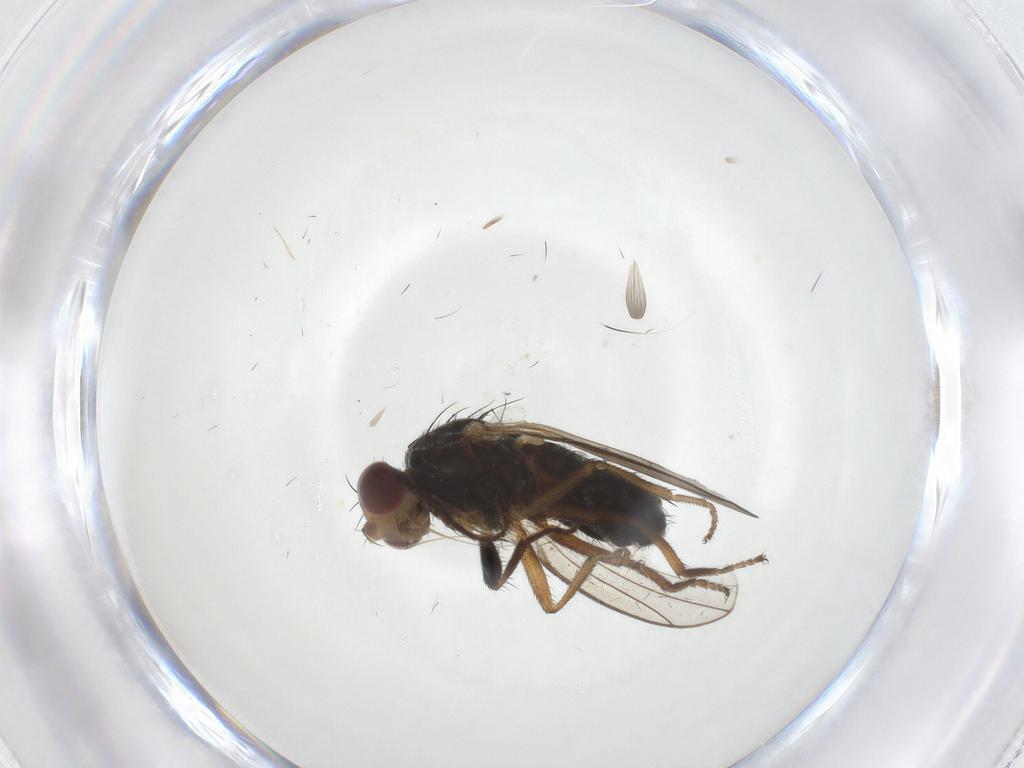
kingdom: Animalia
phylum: Arthropoda
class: Insecta
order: Diptera
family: Heleomyzidae
